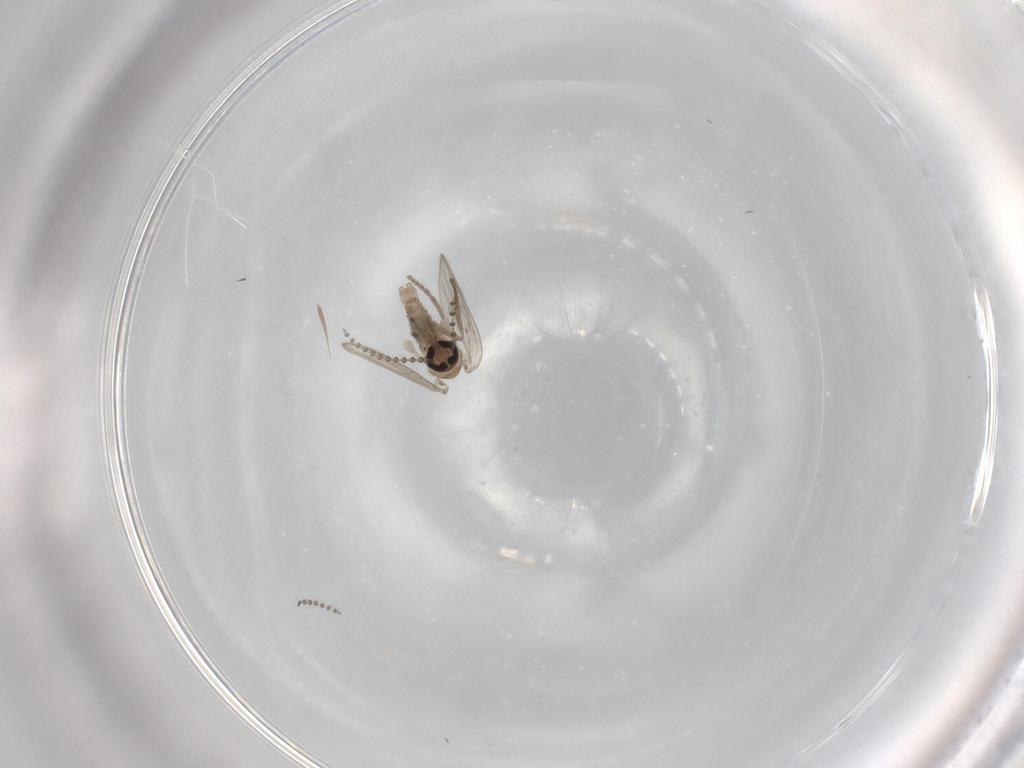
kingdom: Animalia
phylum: Arthropoda
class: Insecta
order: Diptera
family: Psychodidae
